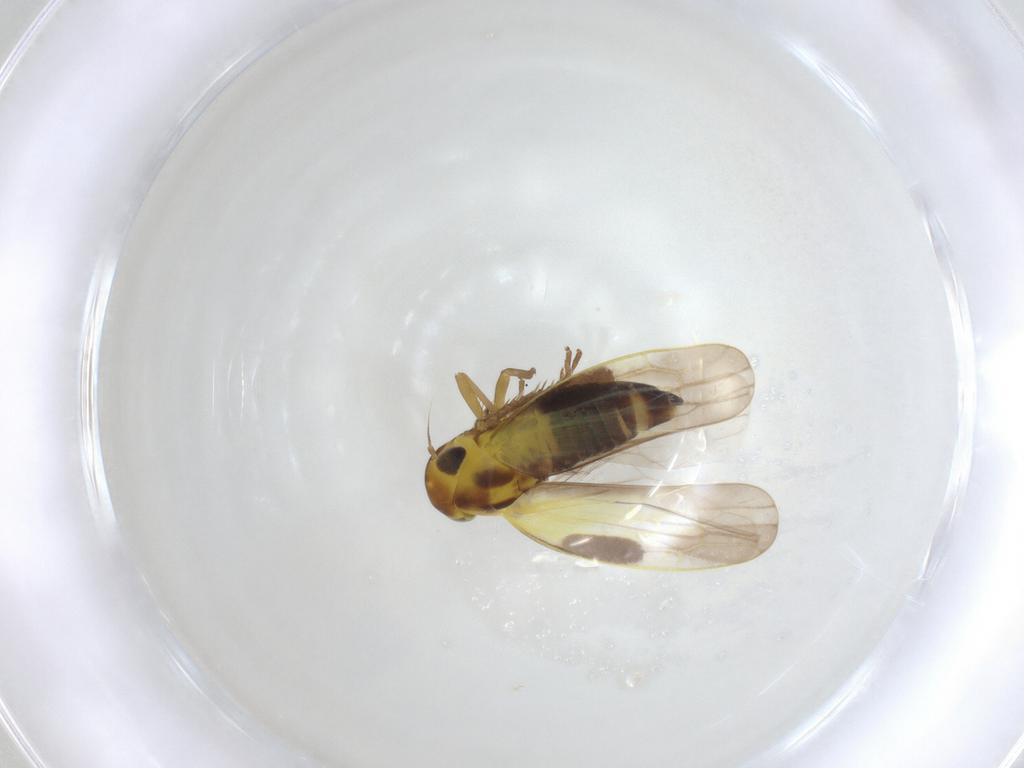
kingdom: Animalia
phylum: Arthropoda
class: Insecta
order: Hemiptera
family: Cicadellidae
